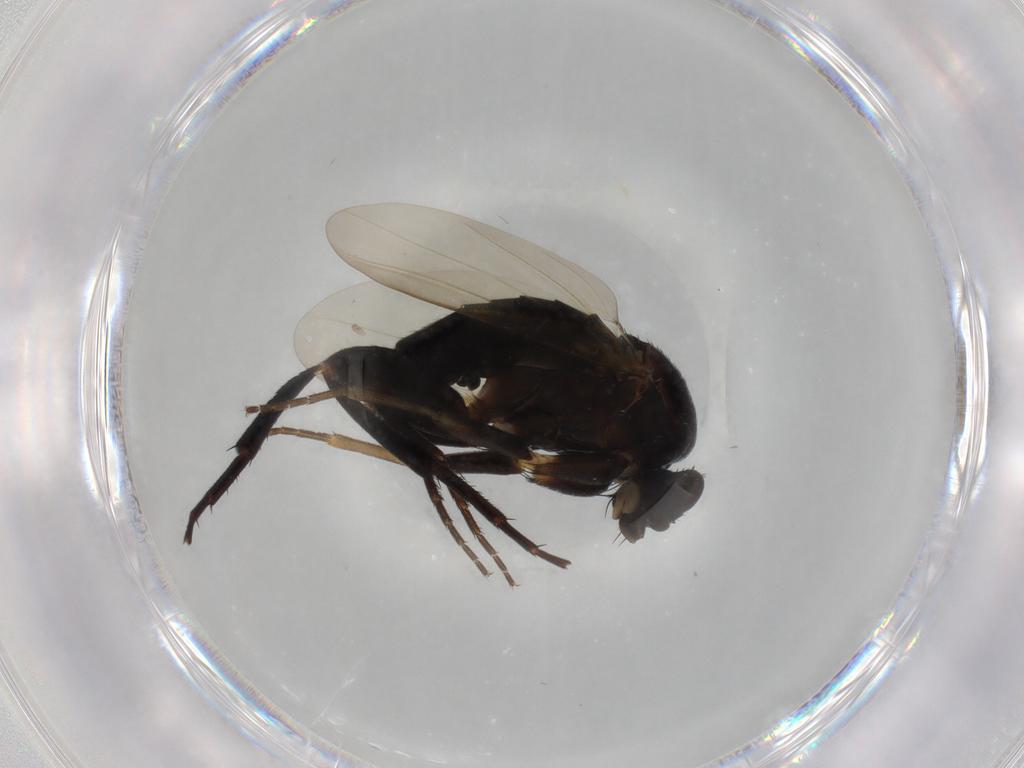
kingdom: Animalia
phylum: Arthropoda
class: Insecta
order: Diptera
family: Phoridae
